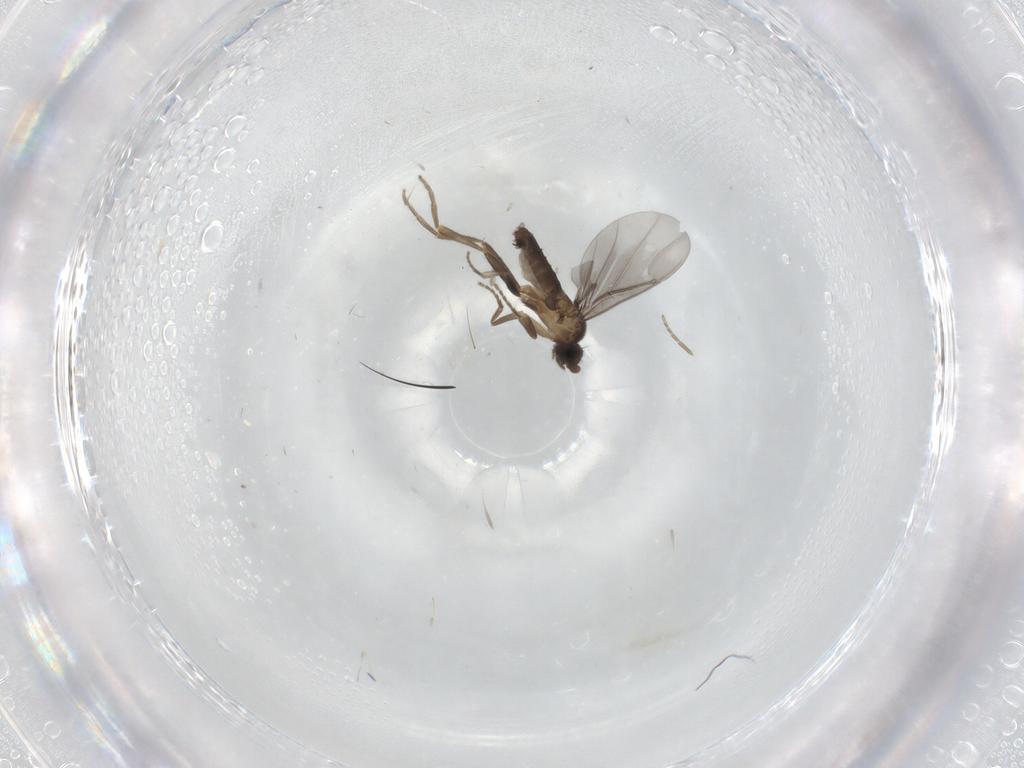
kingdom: Animalia
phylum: Arthropoda
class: Insecta
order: Diptera
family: Phoridae
